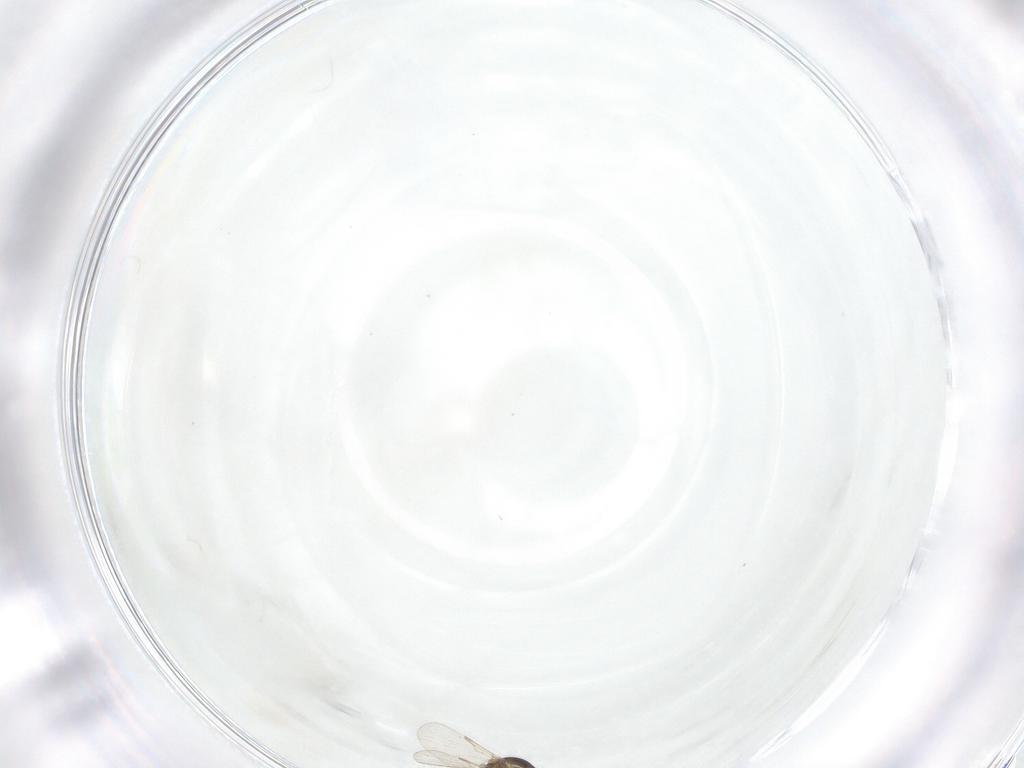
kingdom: Animalia
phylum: Arthropoda
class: Insecta
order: Diptera
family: Ceratopogonidae
